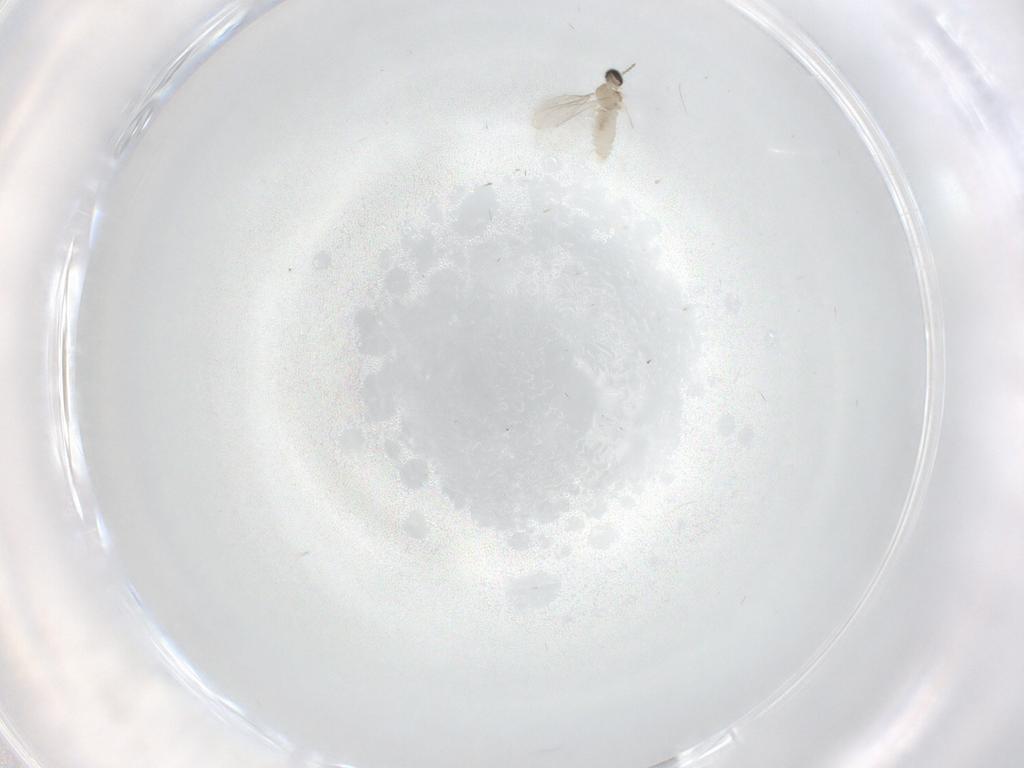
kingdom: Animalia
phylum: Arthropoda
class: Insecta
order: Diptera
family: Cecidomyiidae
